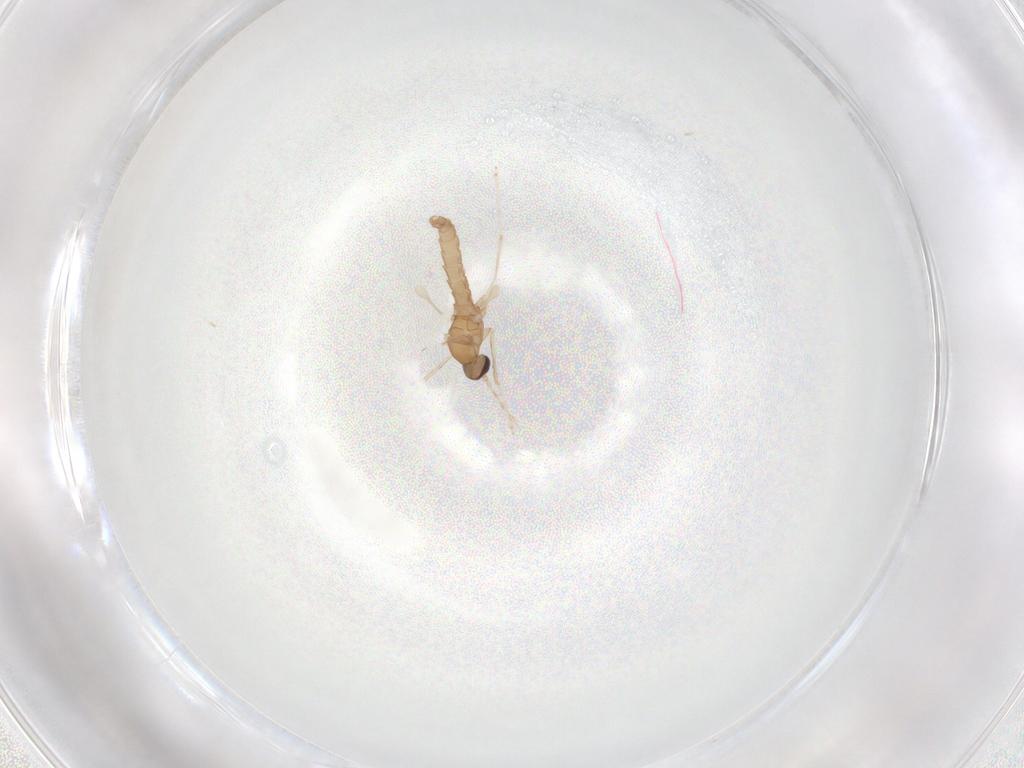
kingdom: Animalia
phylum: Arthropoda
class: Insecta
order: Diptera
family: Cecidomyiidae
